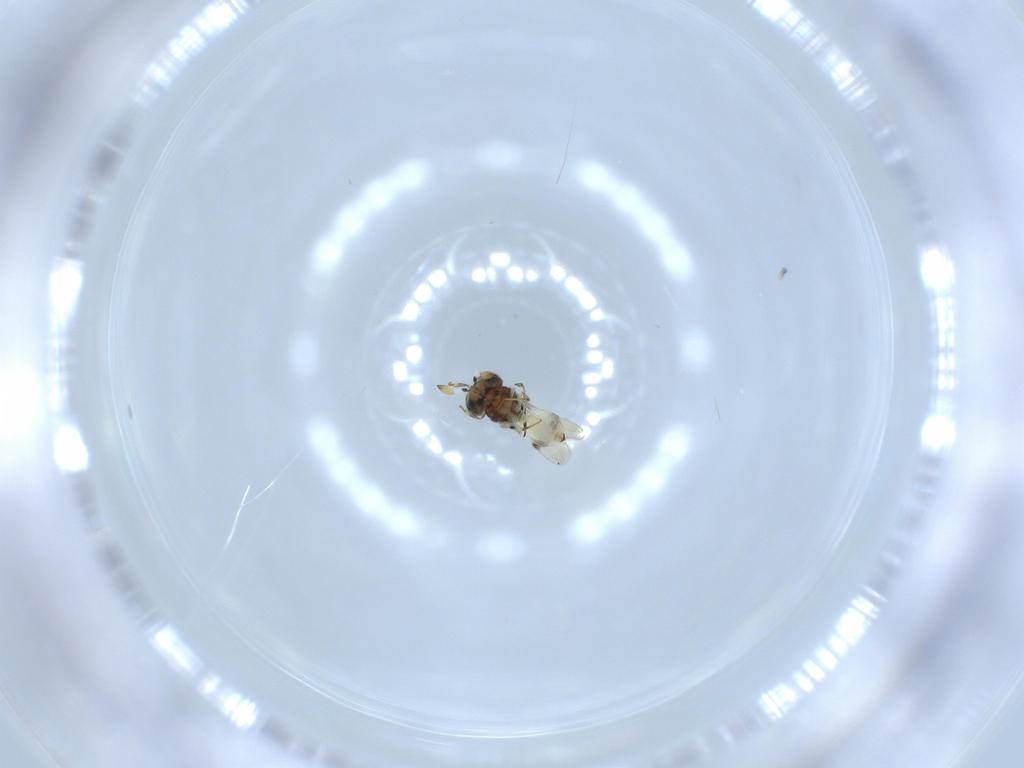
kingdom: Animalia
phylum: Arthropoda
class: Insecta
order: Hymenoptera
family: Scelionidae
